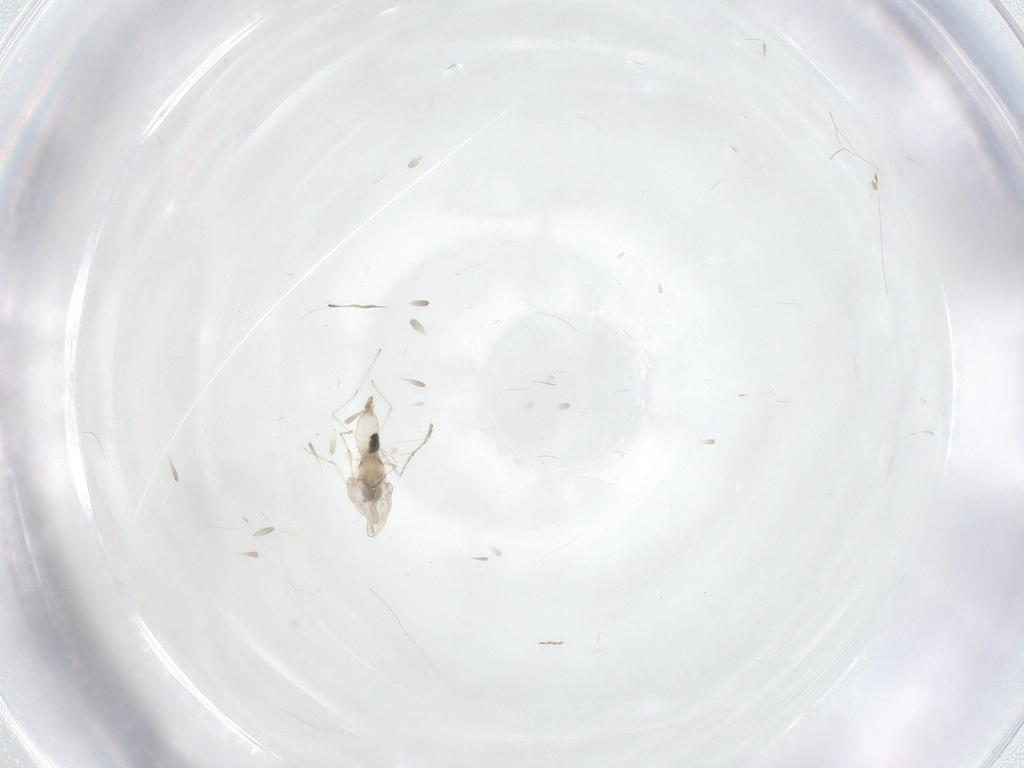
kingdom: Animalia
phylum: Arthropoda
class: Insecta
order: Diptera
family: Cecidomyiidae
